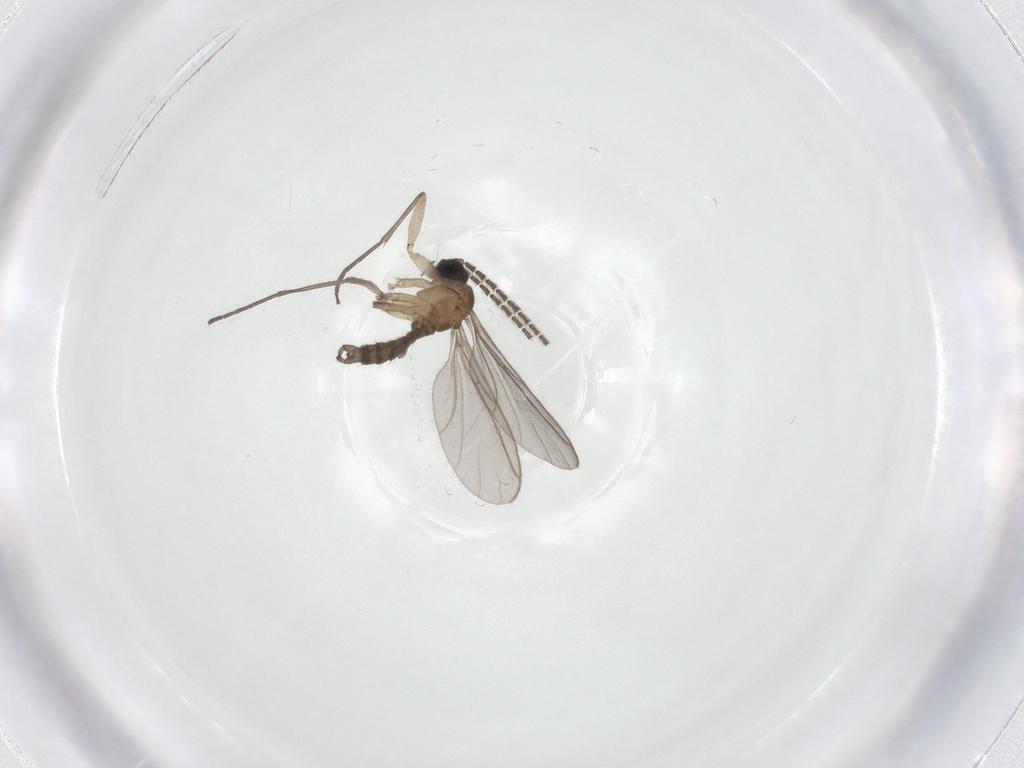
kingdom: Animalia
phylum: Arthropoda
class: Insecta
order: Diptera
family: Sciaridae
